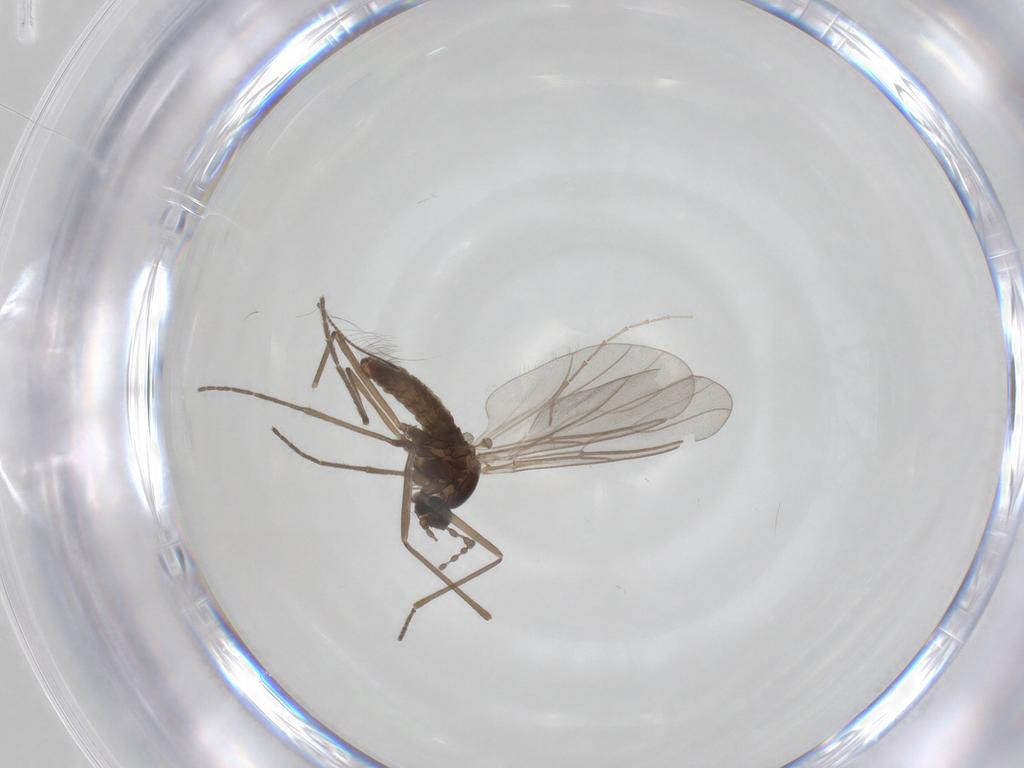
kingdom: Animalia
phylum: Arthropoda
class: Insecta
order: Diptera
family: Cecidomyiidae
